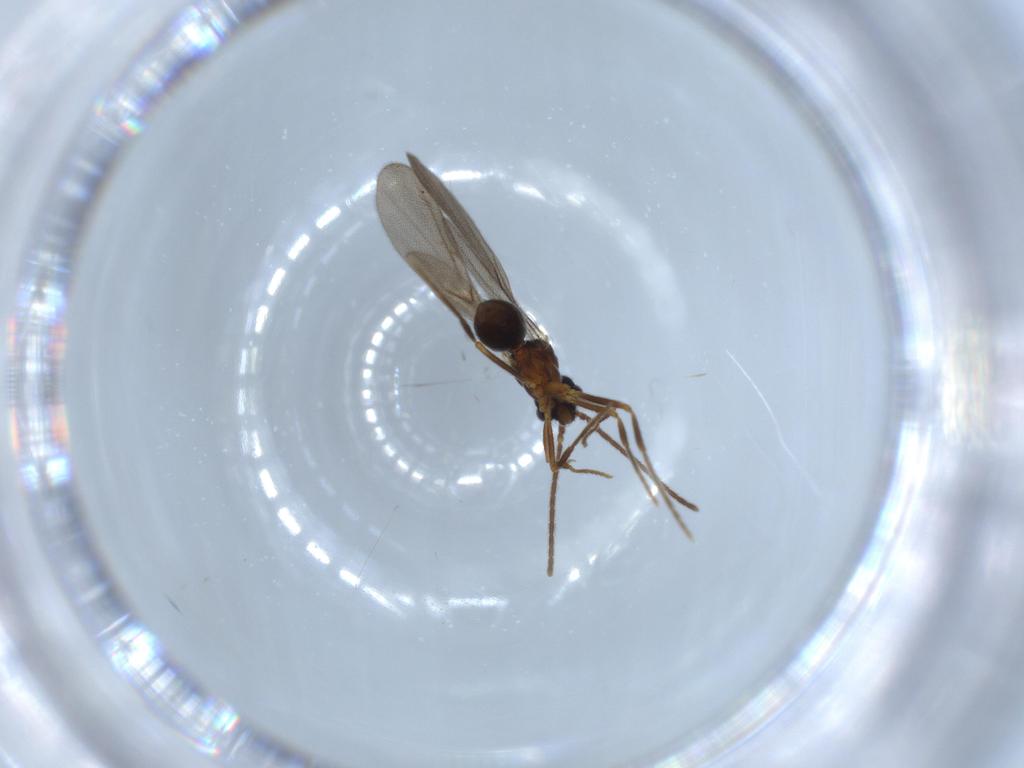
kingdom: Animalia
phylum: Arthropoda
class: Insecta
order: Hymenoptera
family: Formicidae
